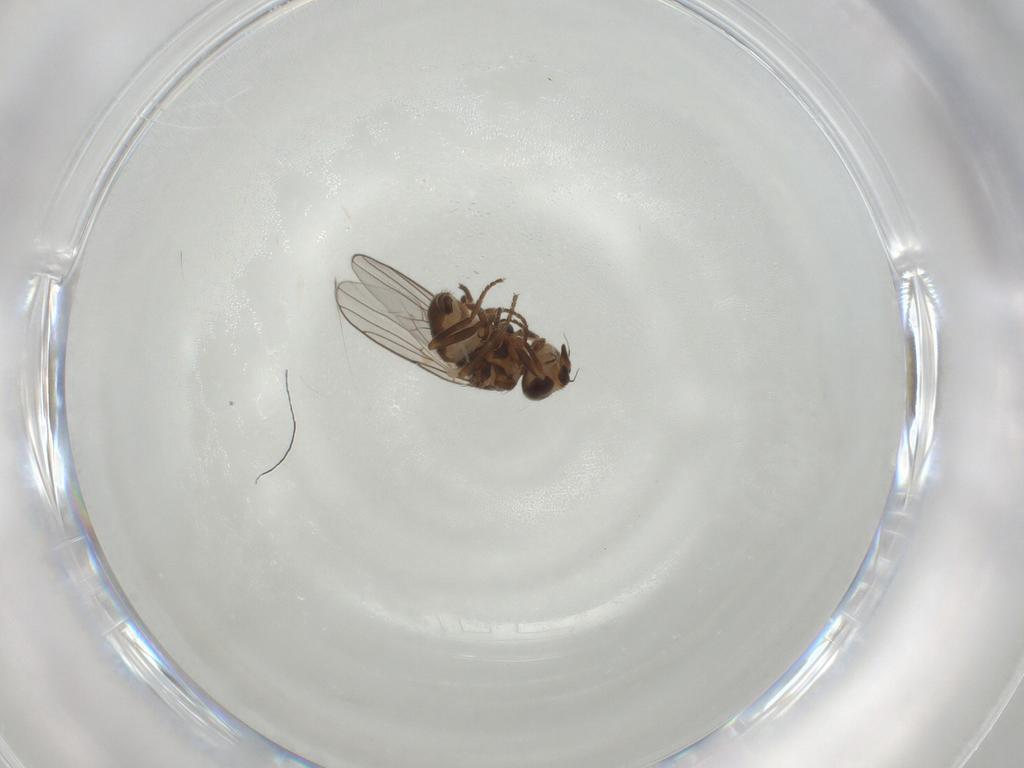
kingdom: Animalia
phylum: Arthropoda
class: Insecta
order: Diptera
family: Chloropidae
